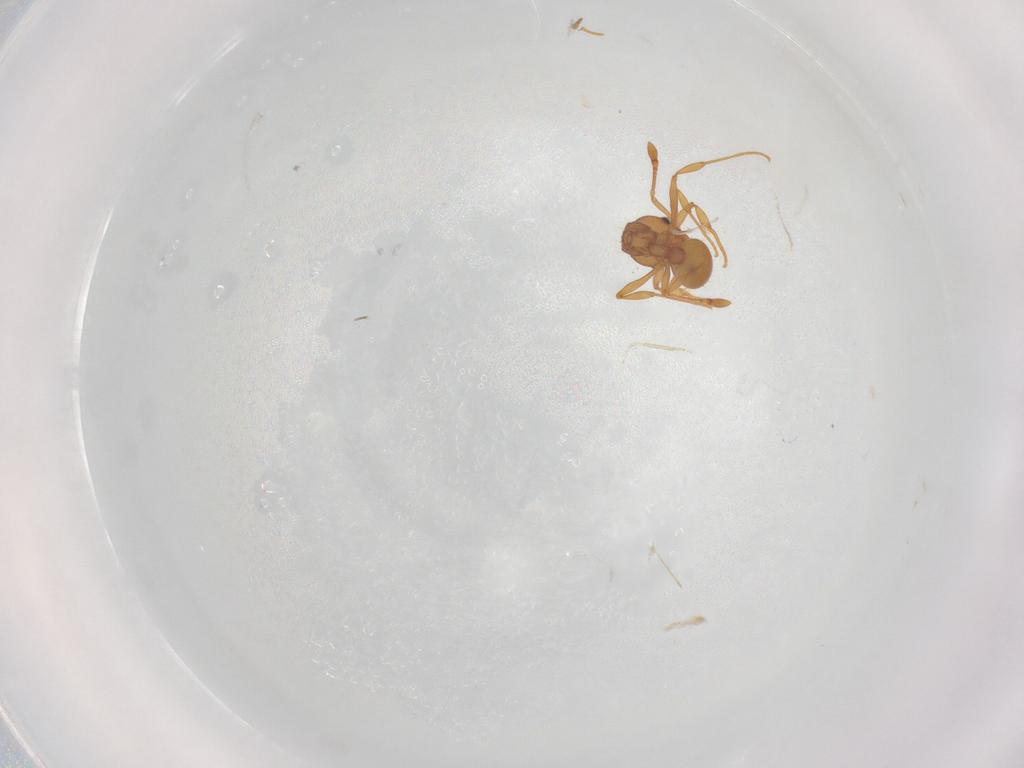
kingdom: Animalia
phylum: Arthropoda
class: Insecta
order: Hymenoptera
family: Formicidae
